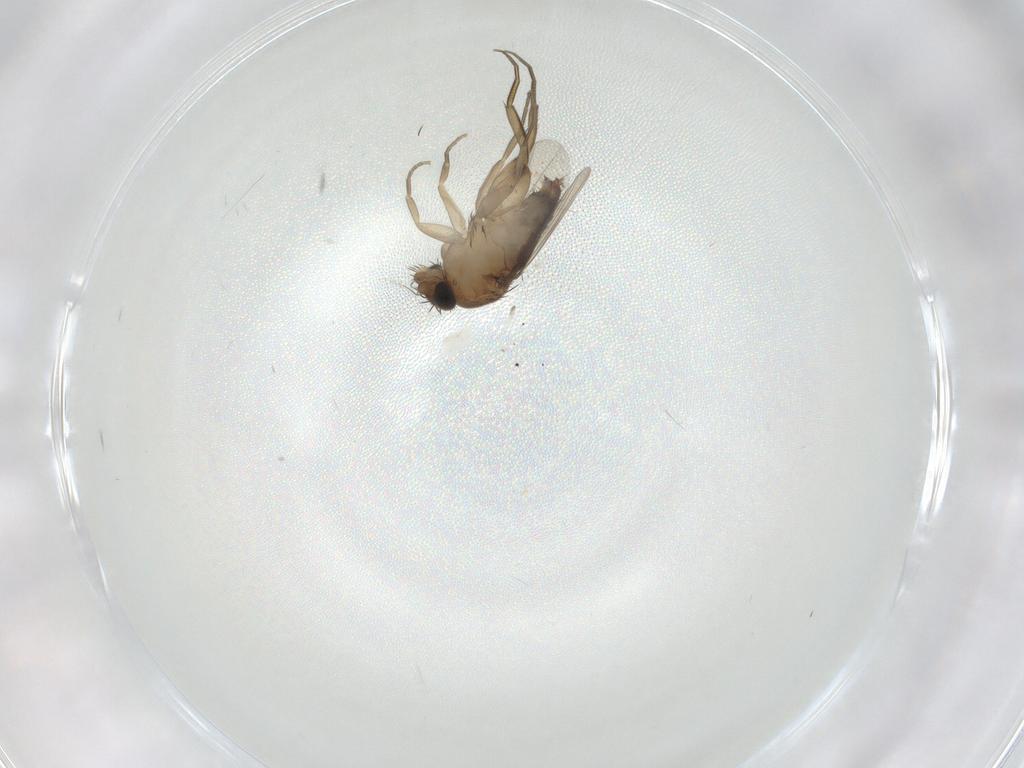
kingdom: Animalia
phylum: Arthropoda
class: Insecta
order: Diptera
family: Phoridae
